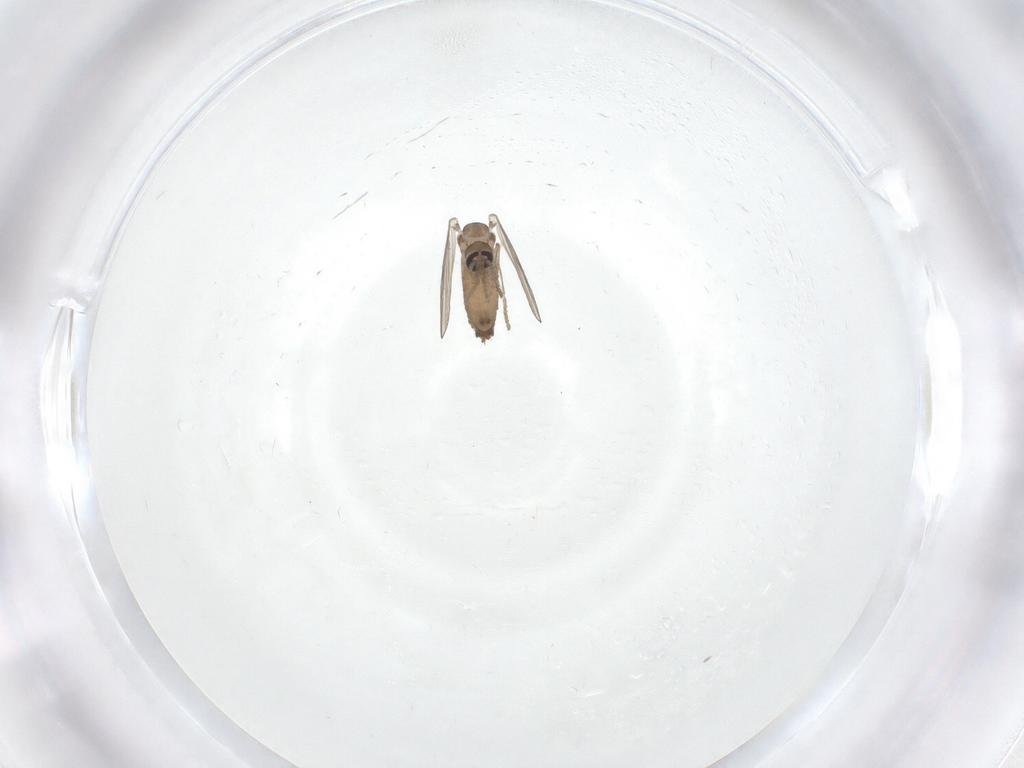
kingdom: Animalia
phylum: Arthropoda
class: Insecta
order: Diptera
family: Psychodidae
